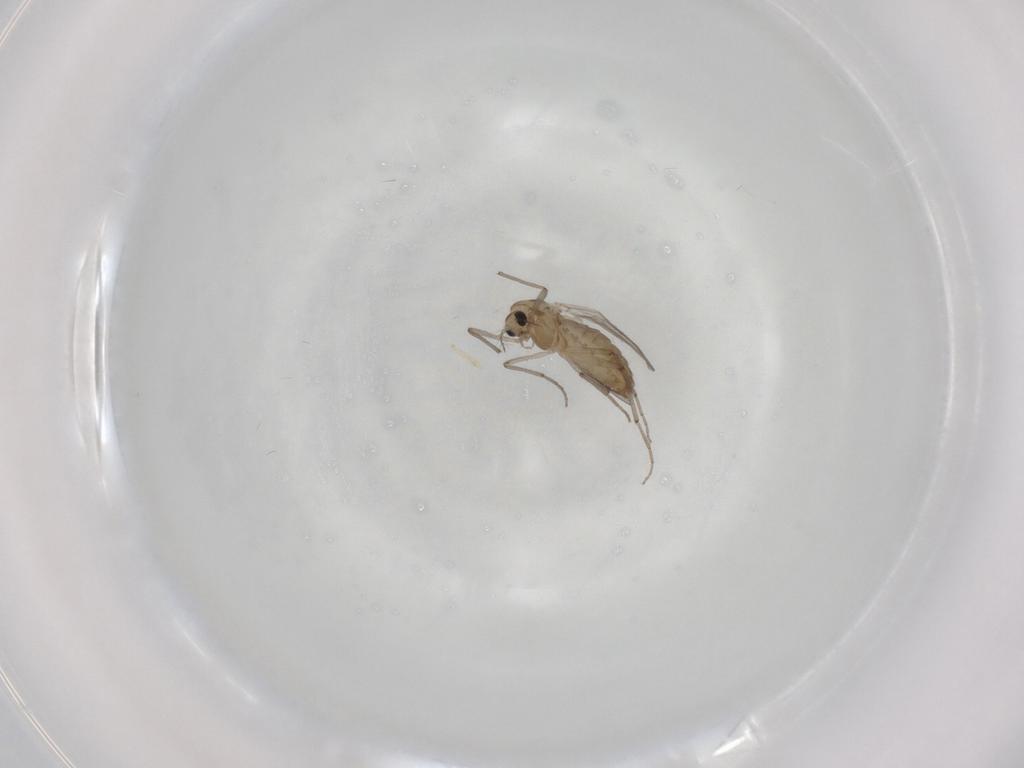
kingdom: Animalia
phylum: Arthropoda
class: Insecta
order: Diptera
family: Chironomidae
